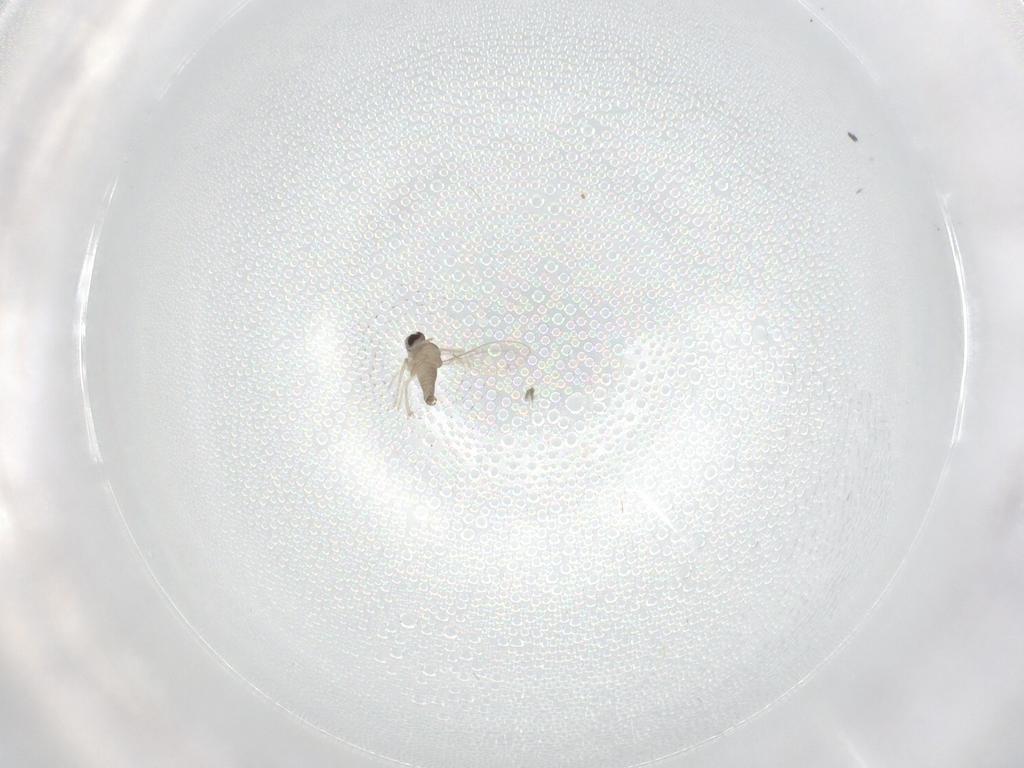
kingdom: Animalia
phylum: Arthropoda
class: Insecta
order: Diptera
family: Cecidomyiidae
